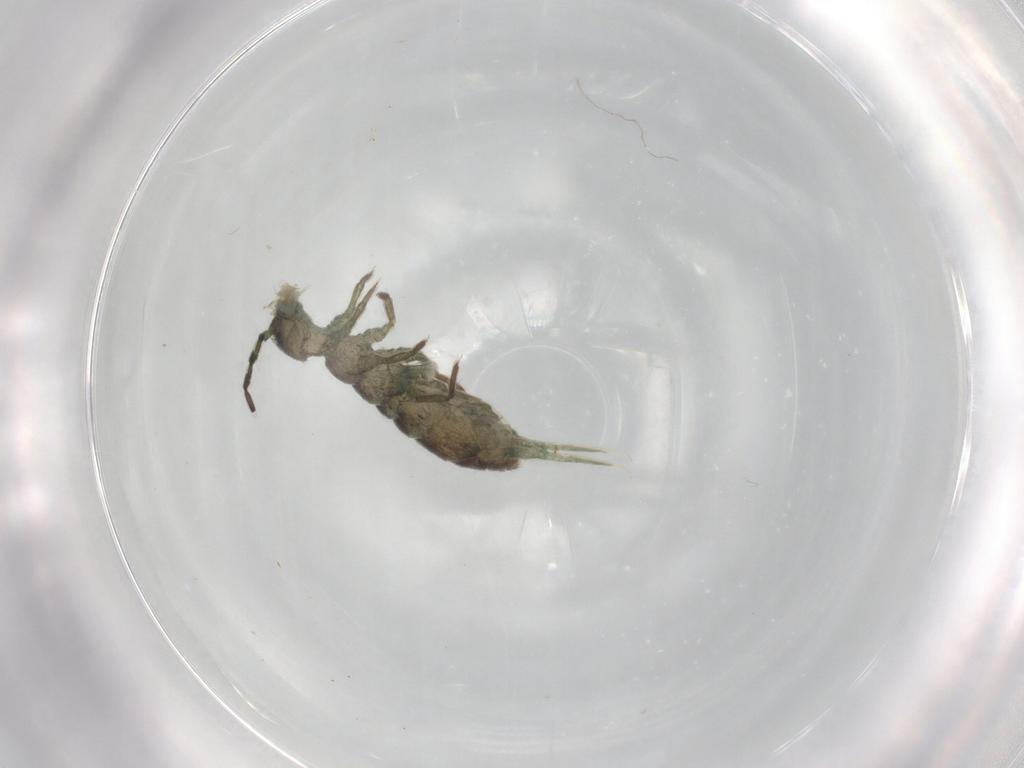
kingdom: Animalia
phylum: Arthropoda
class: Collembola
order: Entomobryomorpha
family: Isotomidae
